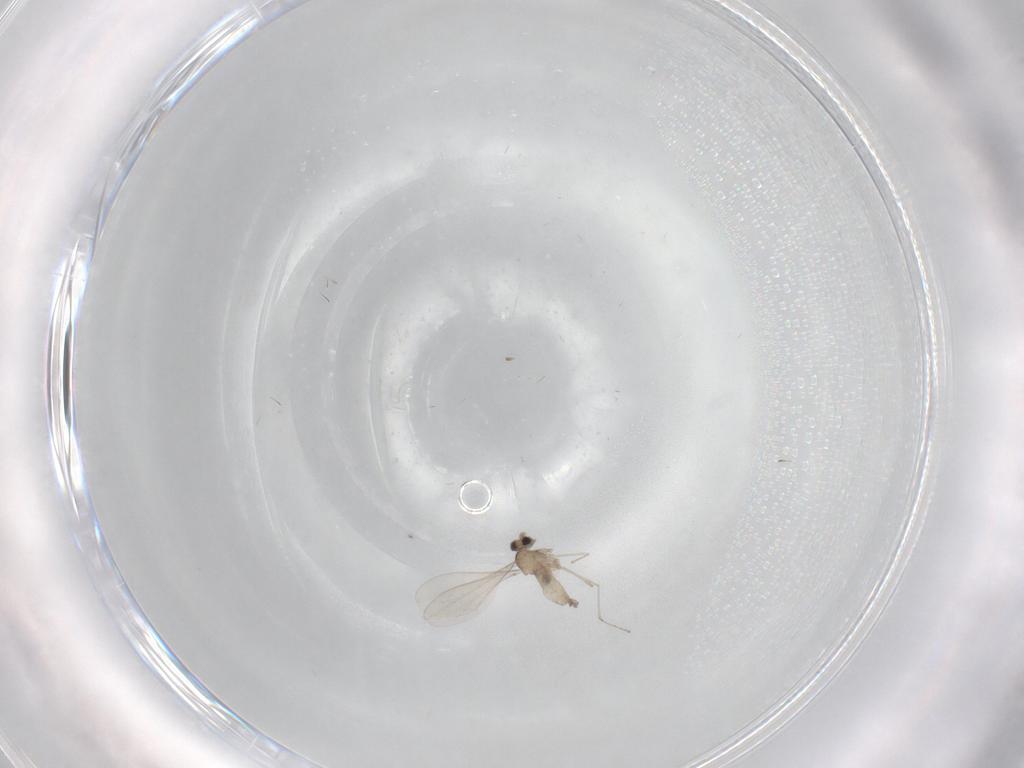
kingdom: Animalia
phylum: Arthropoda
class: Insecta
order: Diptera
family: Cecidomyiidae
